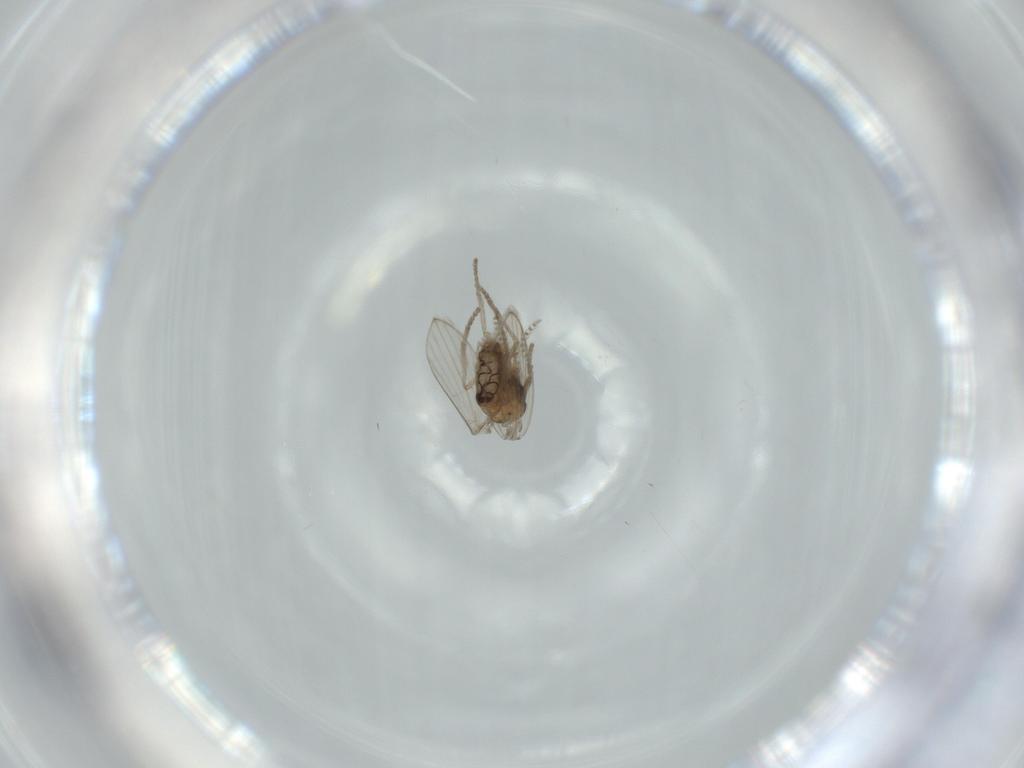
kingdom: Animalia
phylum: Arthropoda
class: Insecta
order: Diptera
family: Psychodidae
